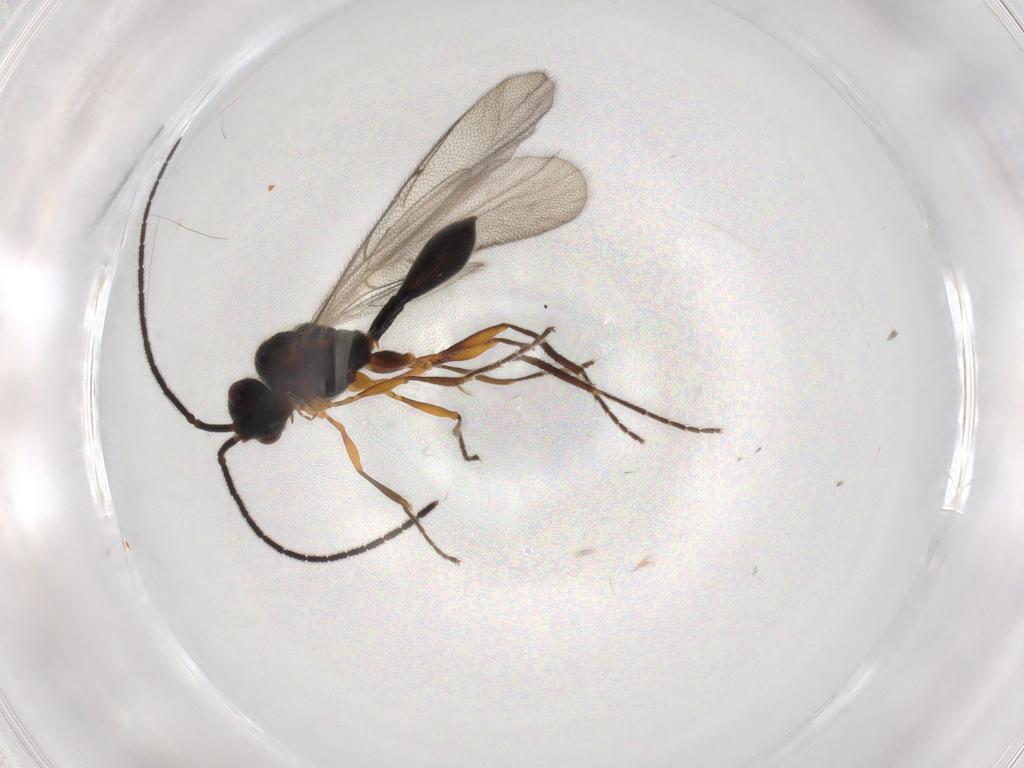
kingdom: Animalia
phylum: Arthropoda
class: Insecta
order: Hymenoptera
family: Diapriidae
